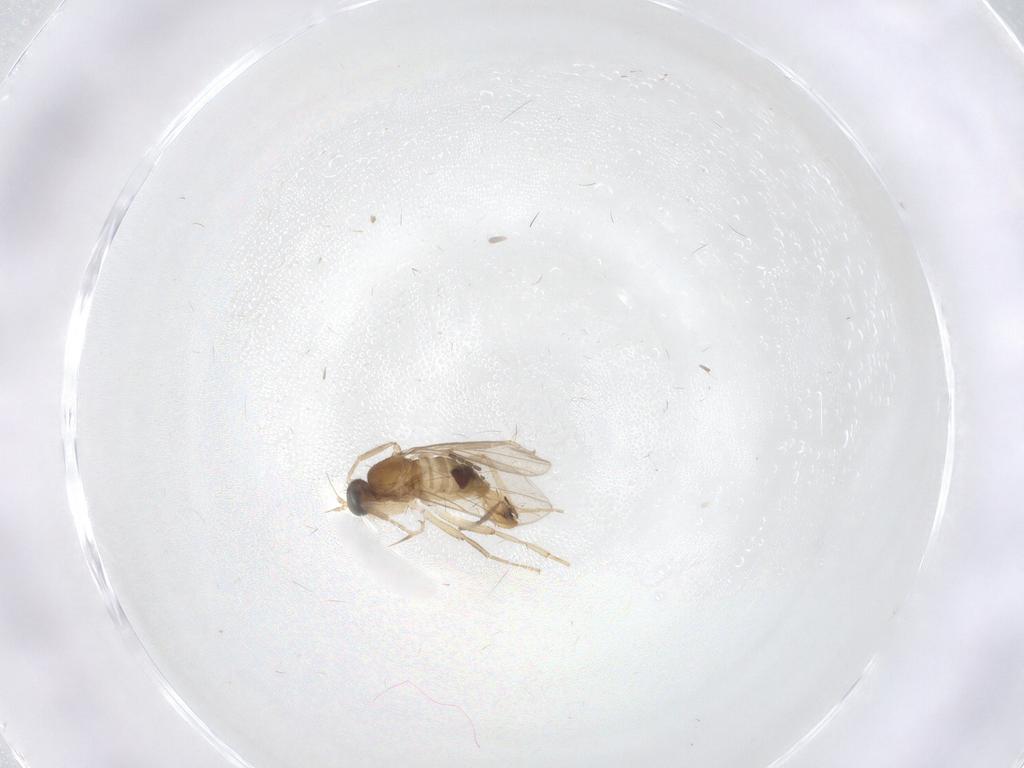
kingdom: Animalia
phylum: Arthropoda
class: Insecta
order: Diptera
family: Hybotidae
